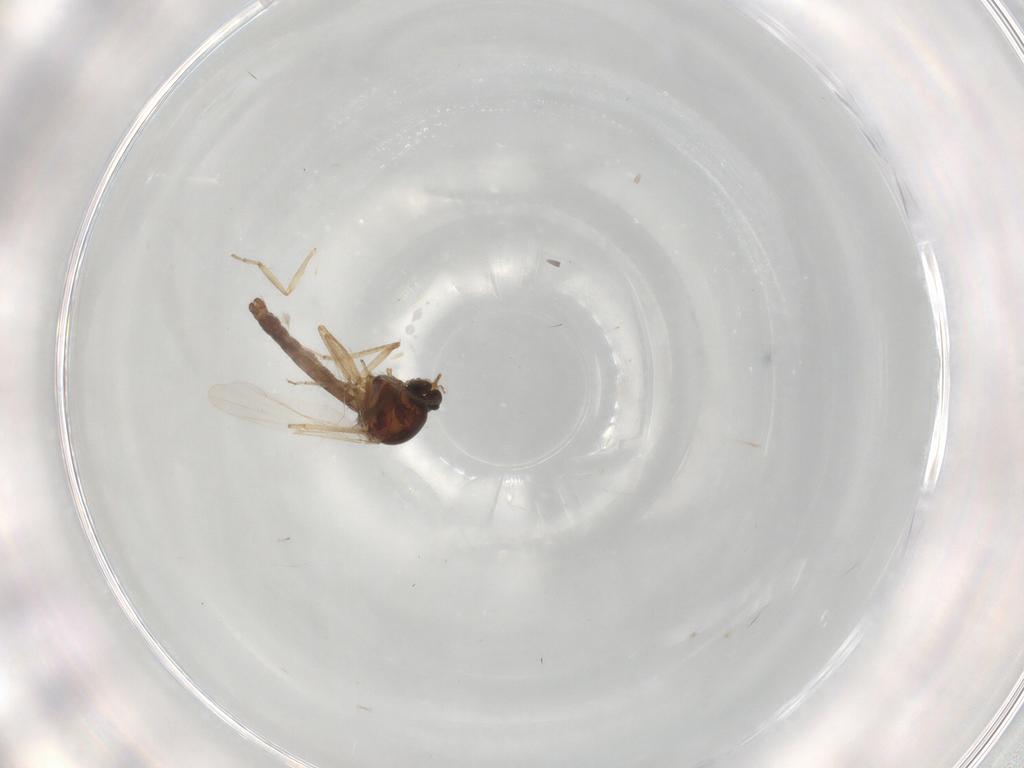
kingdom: Animalia
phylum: Arthropoda
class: Insecta
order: Diptera
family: Ceratopogonidae
